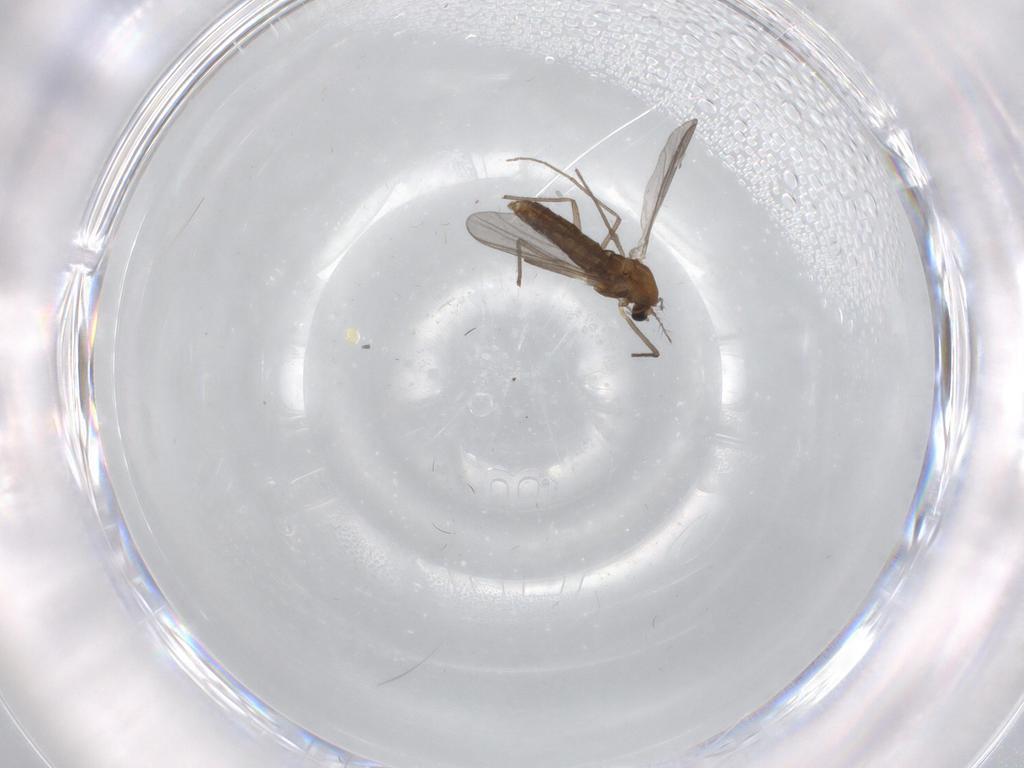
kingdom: Animalia
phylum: Arthropoda
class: Insecta
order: Diptera
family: Chironomidae
